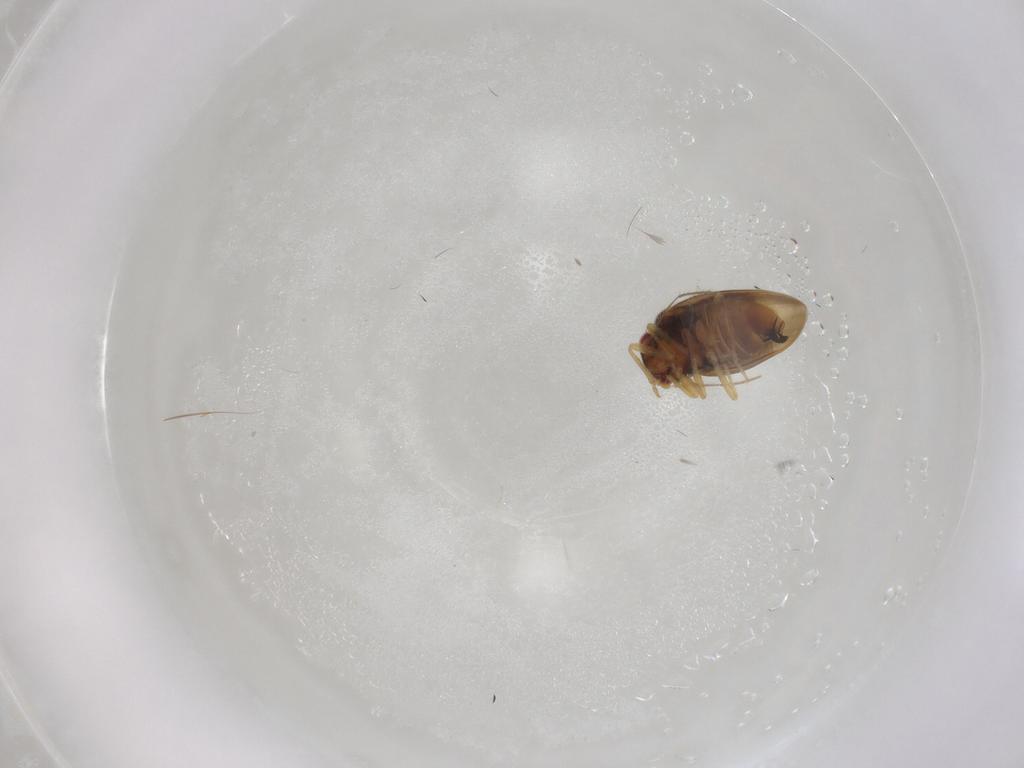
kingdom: Animalia
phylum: Arthropoda
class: Insecta
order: Hemiptera
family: Schizopteridae
